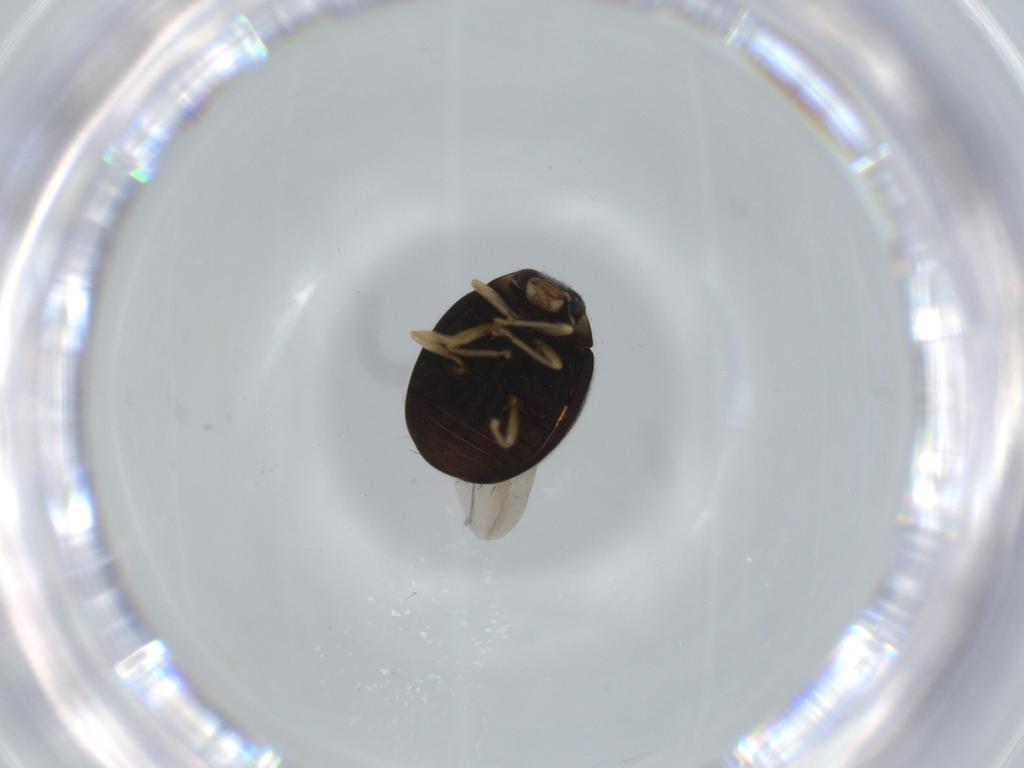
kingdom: Animalia
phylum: Arthropoda
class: Insecta
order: Coleoptera
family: Coccinellidae
